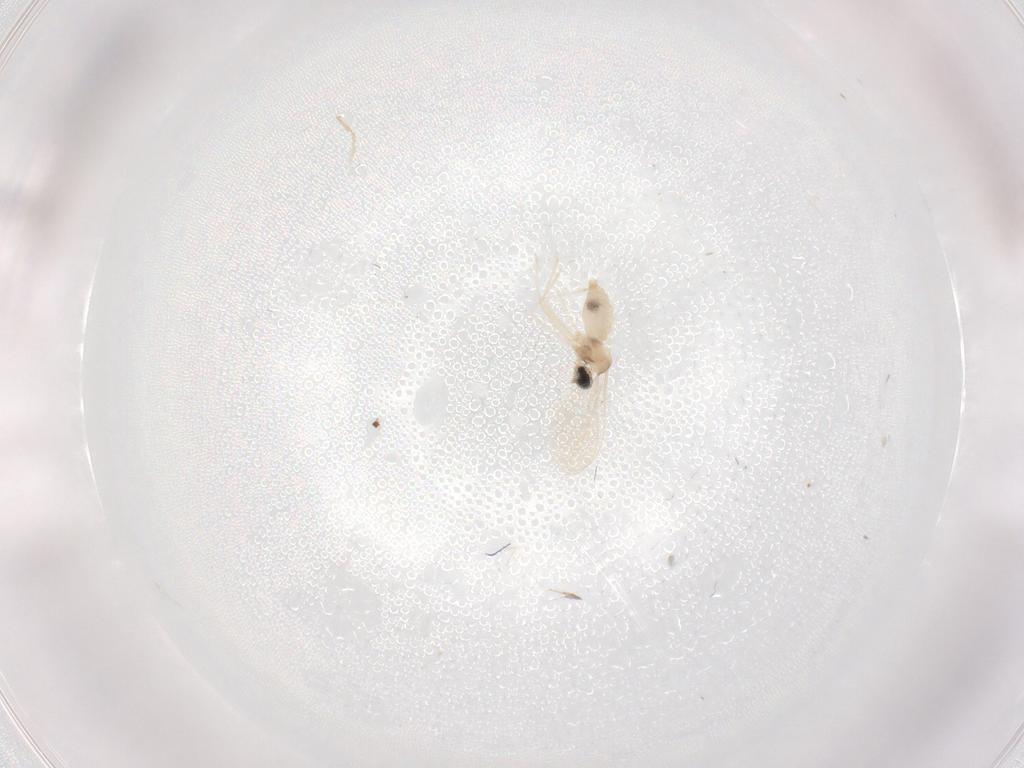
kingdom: Animalia
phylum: Arthropoda
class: Insecta
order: Diptera
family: Cecidomyiidae
